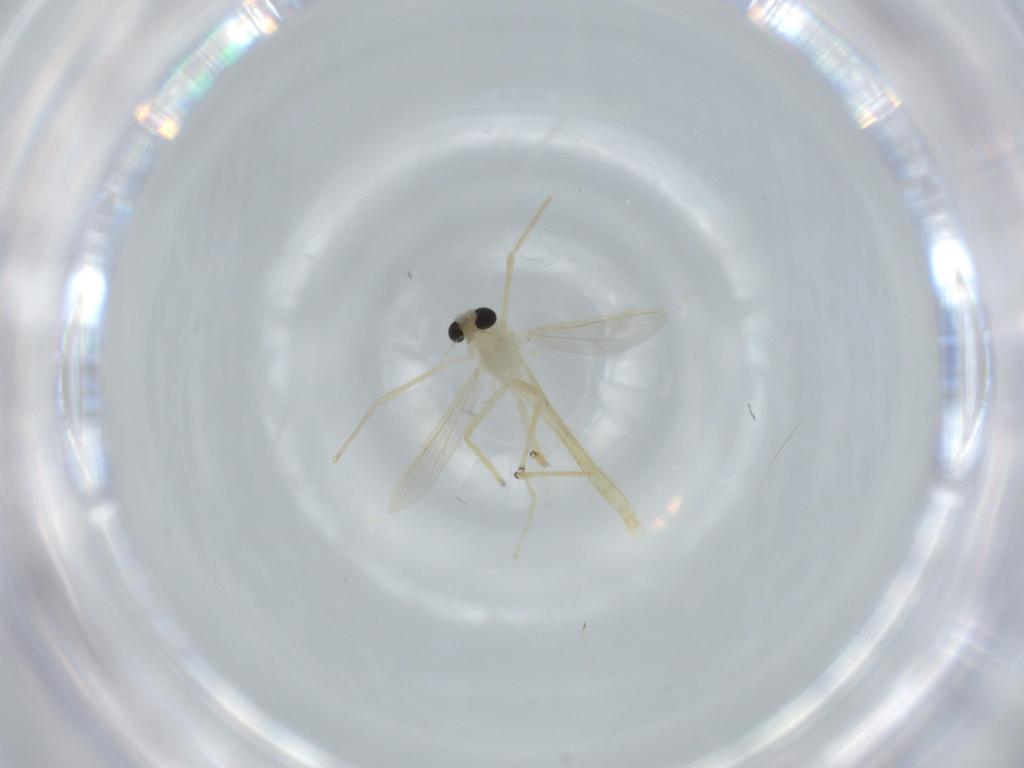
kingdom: Animalia
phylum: Arthropoda
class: Insecta
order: Diptera
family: Chironomidae
